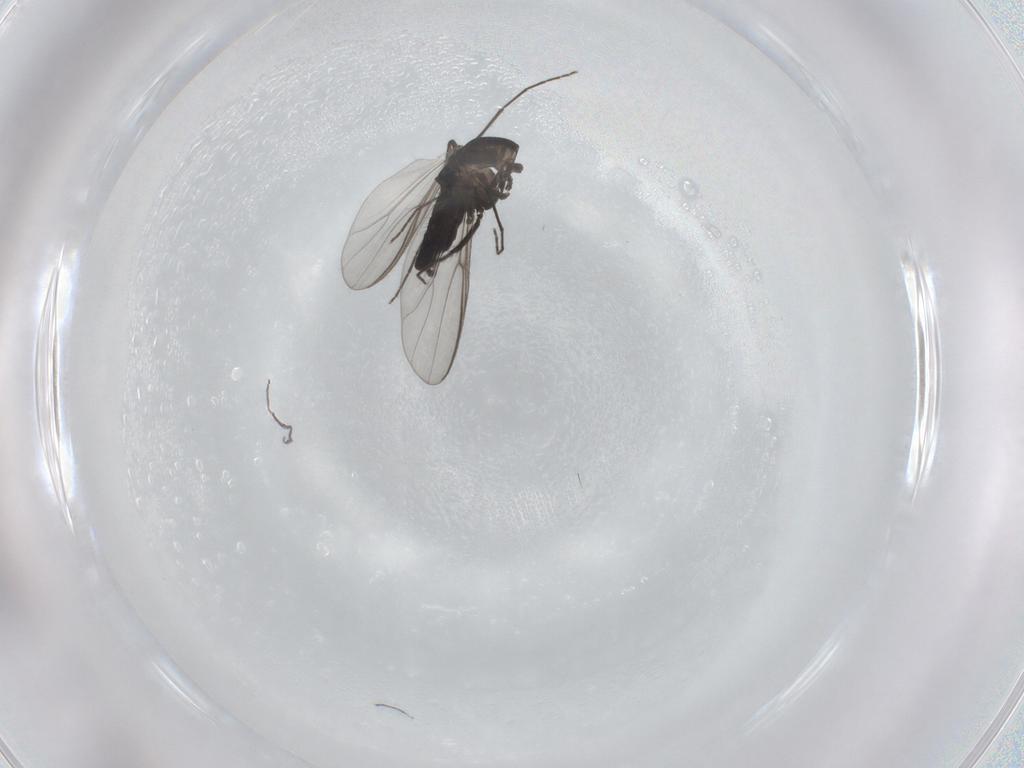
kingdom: Animalia
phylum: Arthropoda
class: Insecta
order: Diptera
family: Chironomidae
